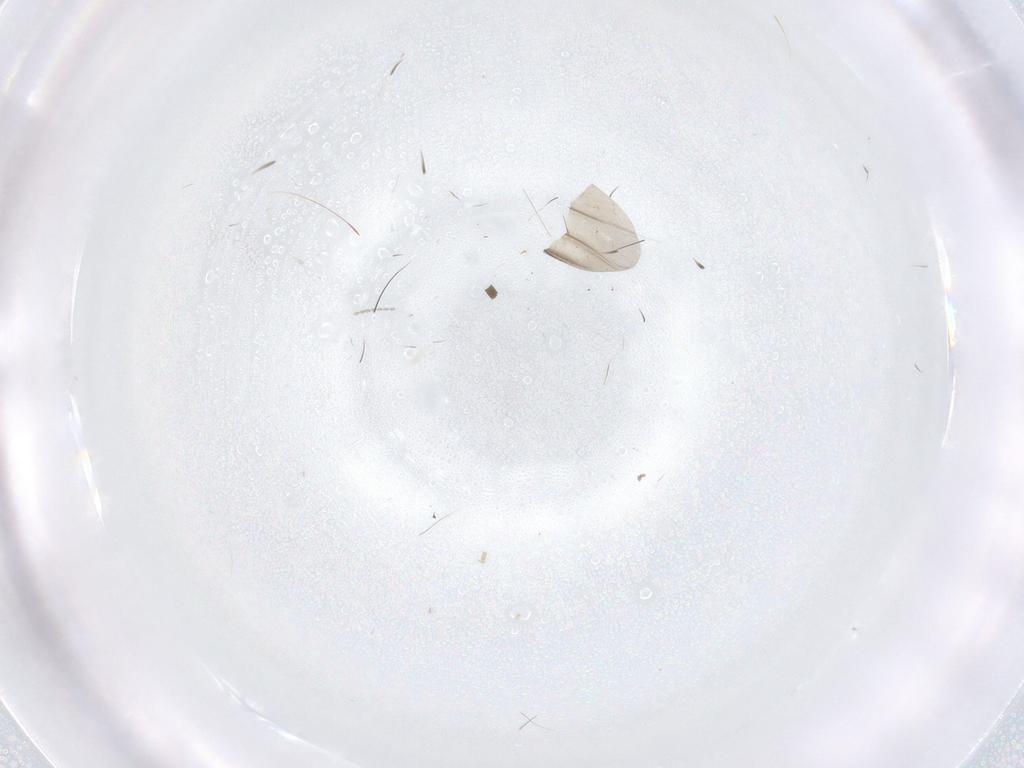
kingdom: Animalia
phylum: Arthropoda
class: Insecta
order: Diptera
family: Cecidomyiidae
